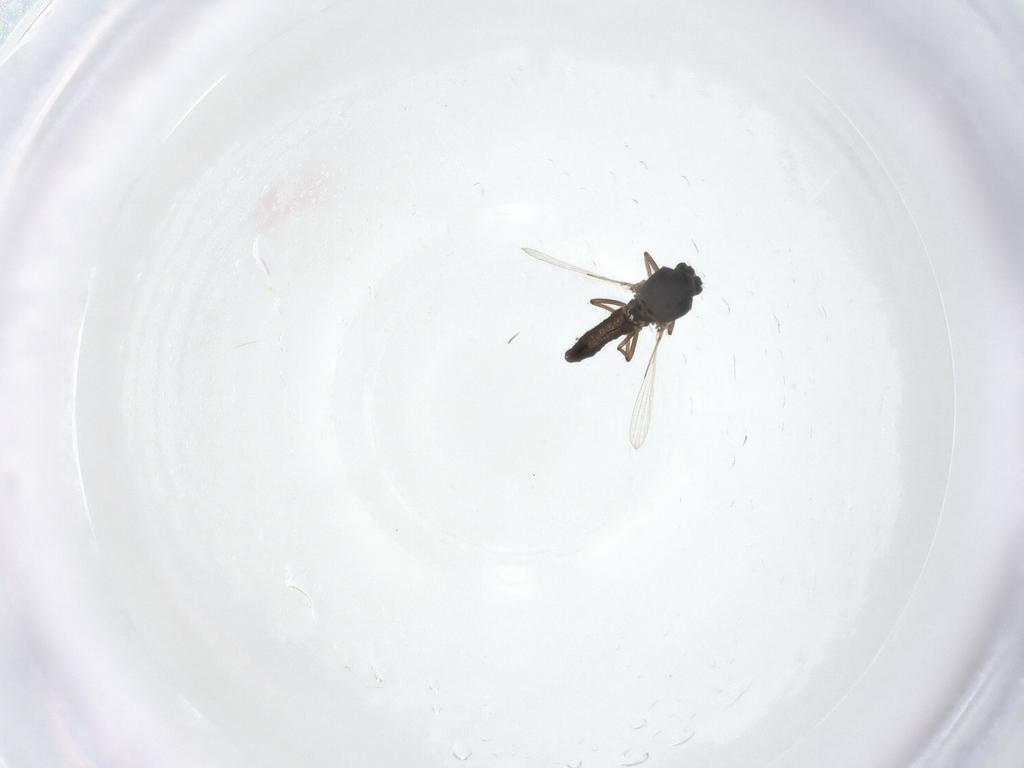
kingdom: Animalia
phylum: Arthropoda
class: Insecta
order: Diptera
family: Ceratopogonidae
